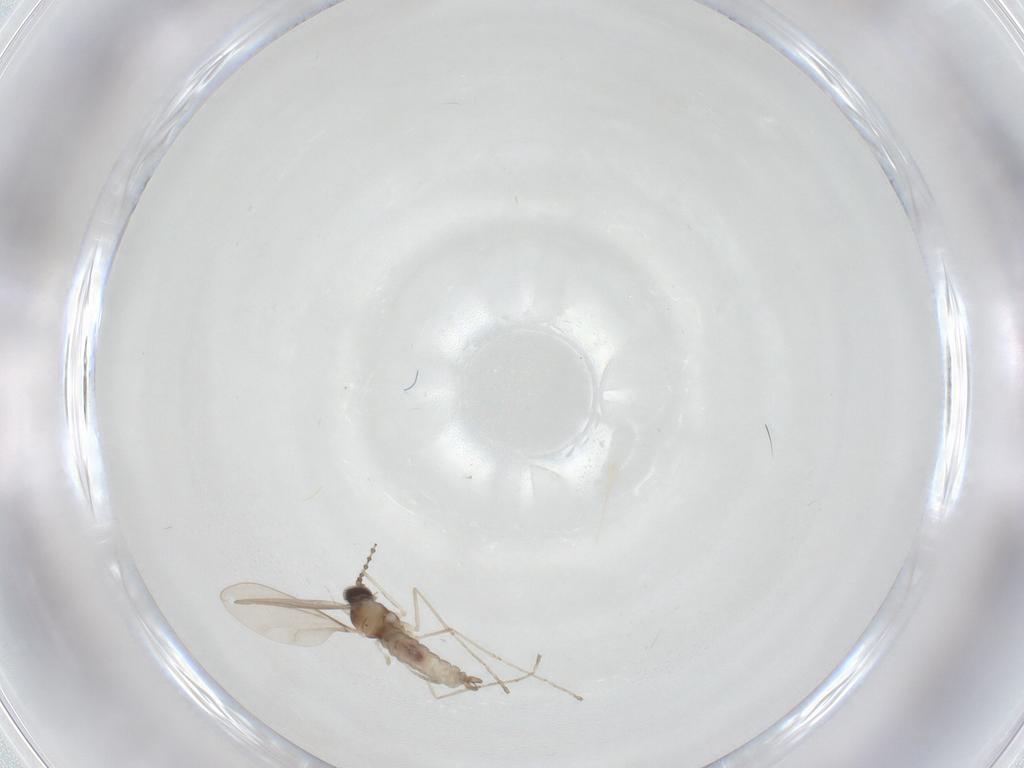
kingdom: Animalia
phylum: Arthropoda
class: Insecta
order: Diptera
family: Cecidomyiidae
